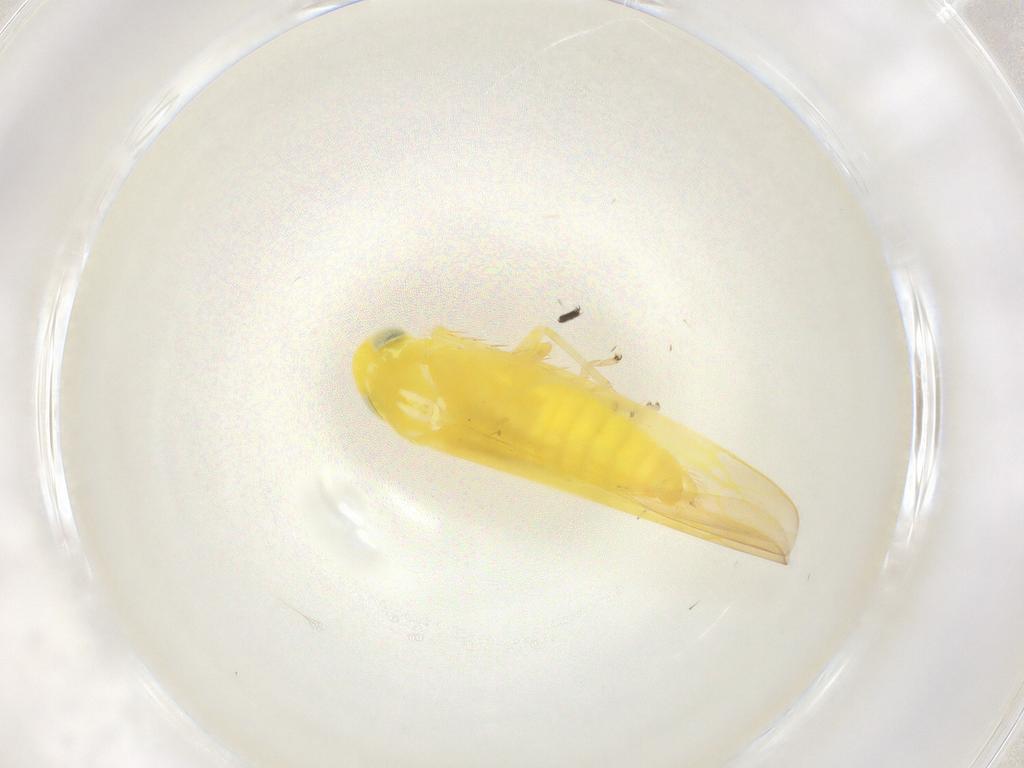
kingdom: Animalia
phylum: Arthropoda
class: Insecta
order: Hemiptera
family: Cicadellidae
